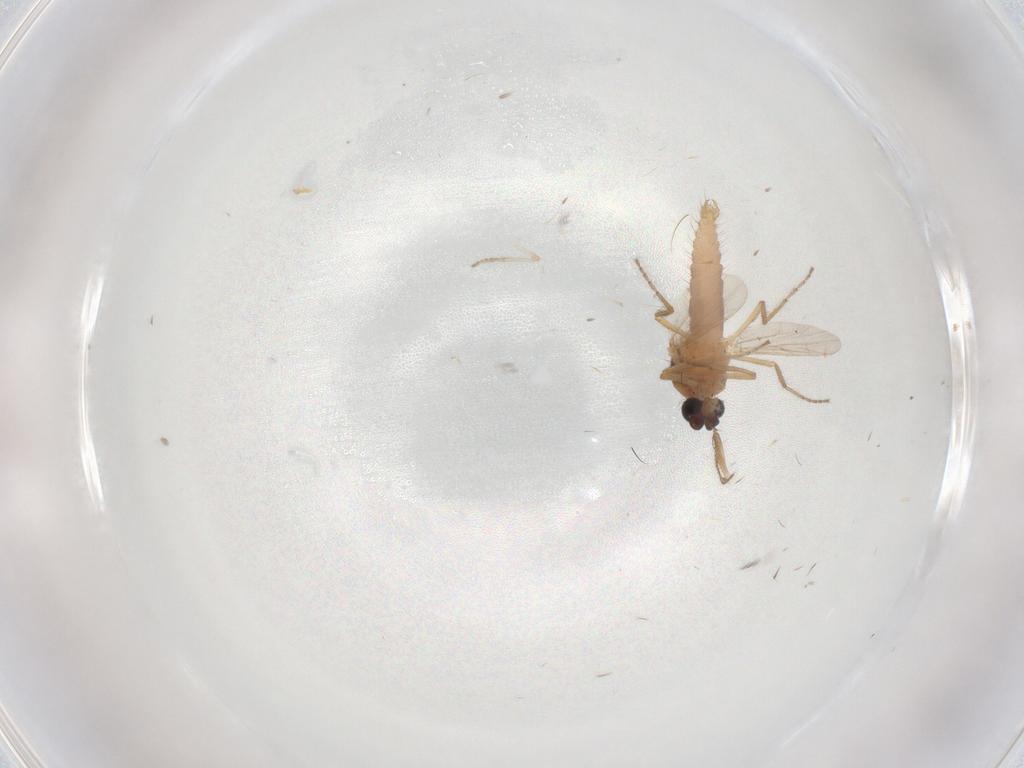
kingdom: Animalia
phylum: Arthropoda
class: Insecta
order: Diptera
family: Ceratopogonidae
